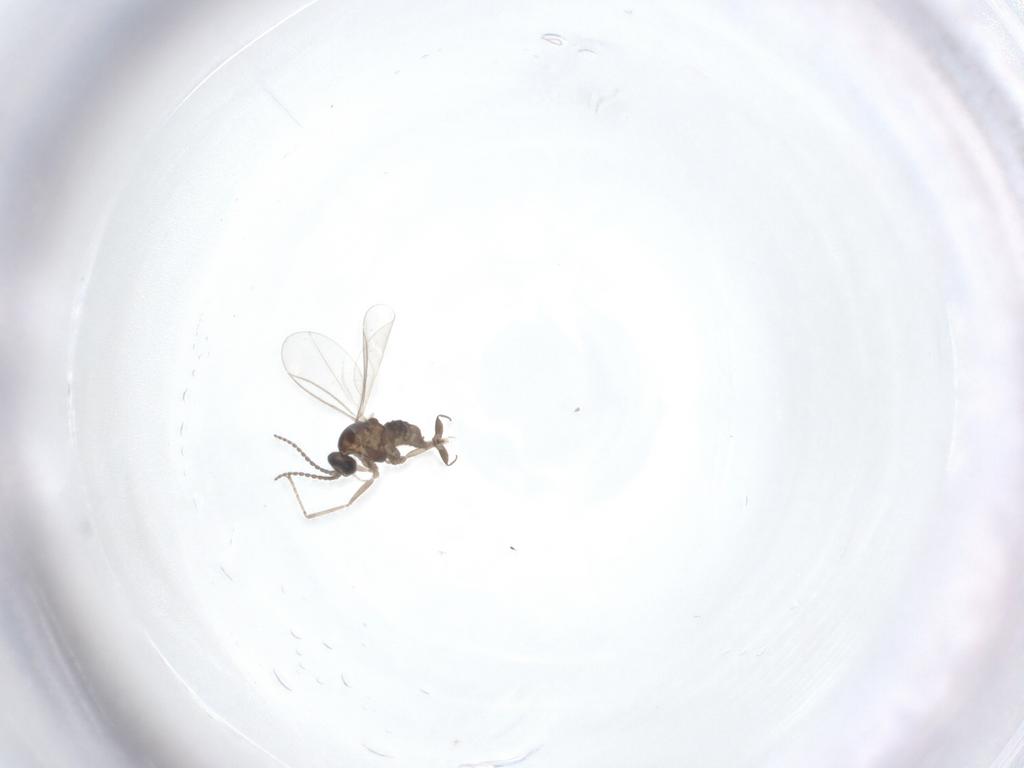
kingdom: Animalia
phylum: Arthropoda
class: Insecta
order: Diptera
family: Cecidomyiidae
